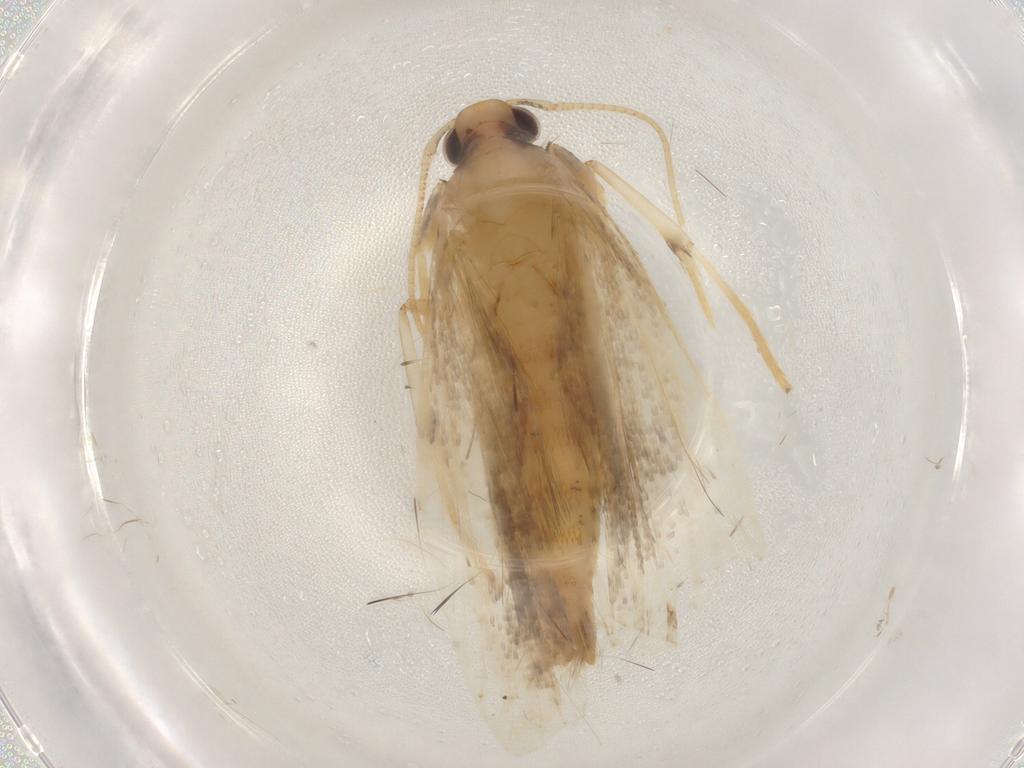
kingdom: Animalia
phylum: Arthropoda
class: Insecta
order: Lepidoptera
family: Lecithoceridae
